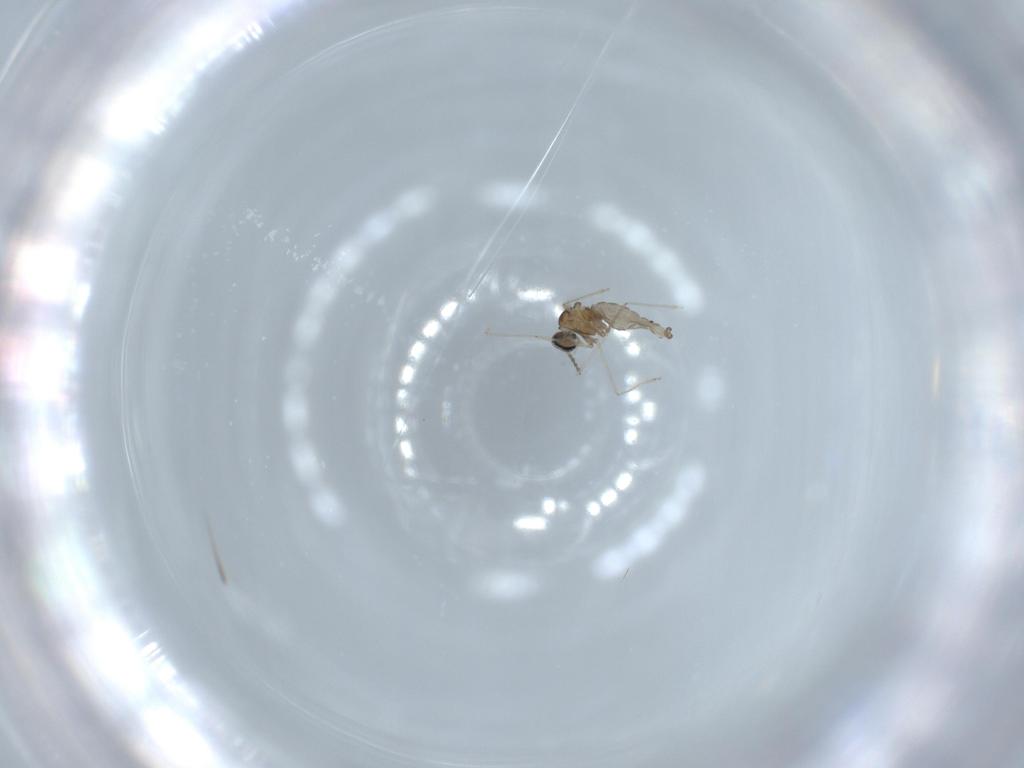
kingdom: Animalia
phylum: Arthropoda
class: Insecta
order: Diptera
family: Cecidomyiidae
